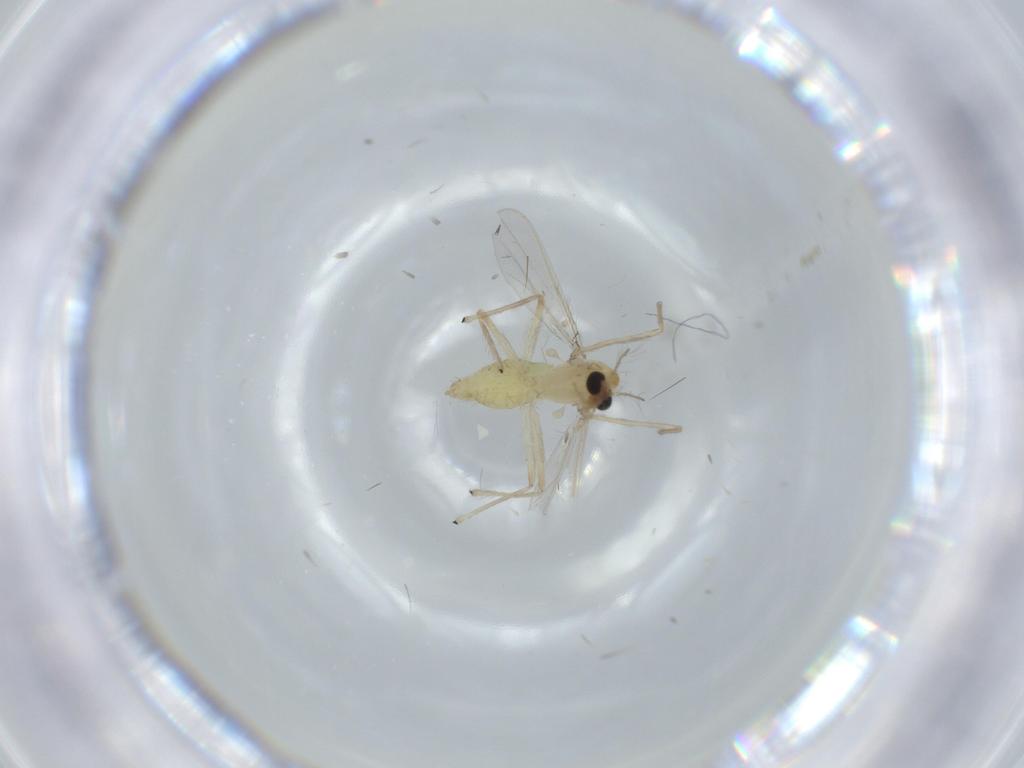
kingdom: Animalia
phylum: Arthropoda
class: Insecta
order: Diptera
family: Chironomidae
